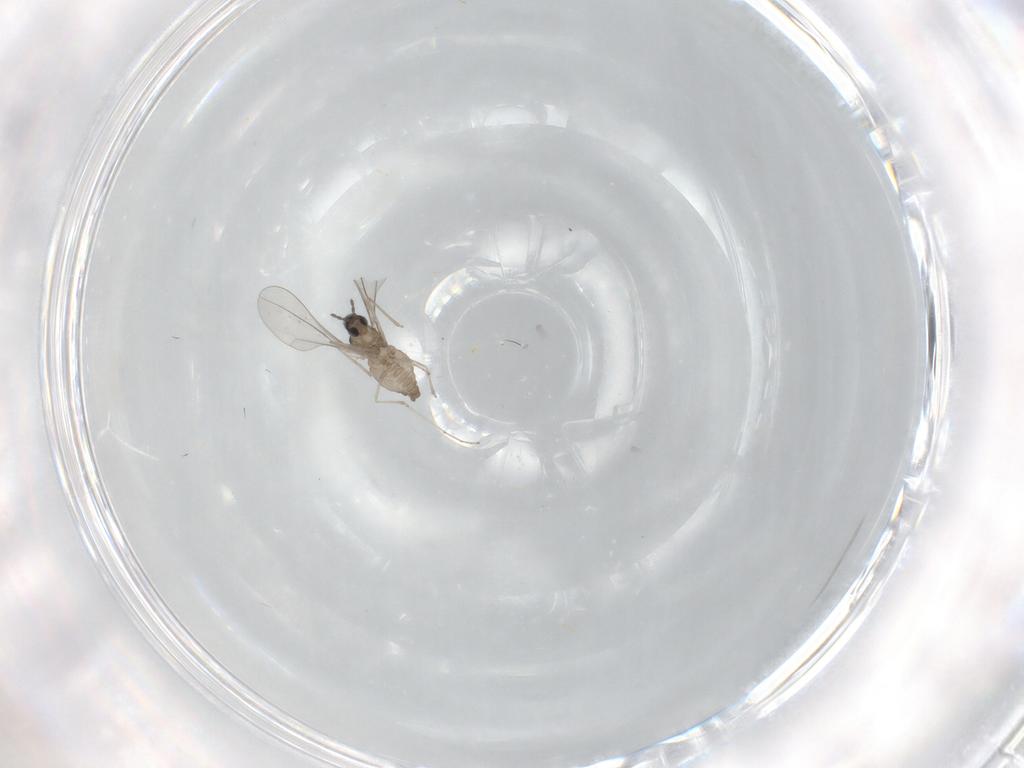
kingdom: Animalia
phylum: Arthropoda
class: Insecta
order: Diptera
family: Cecidomyiidae
